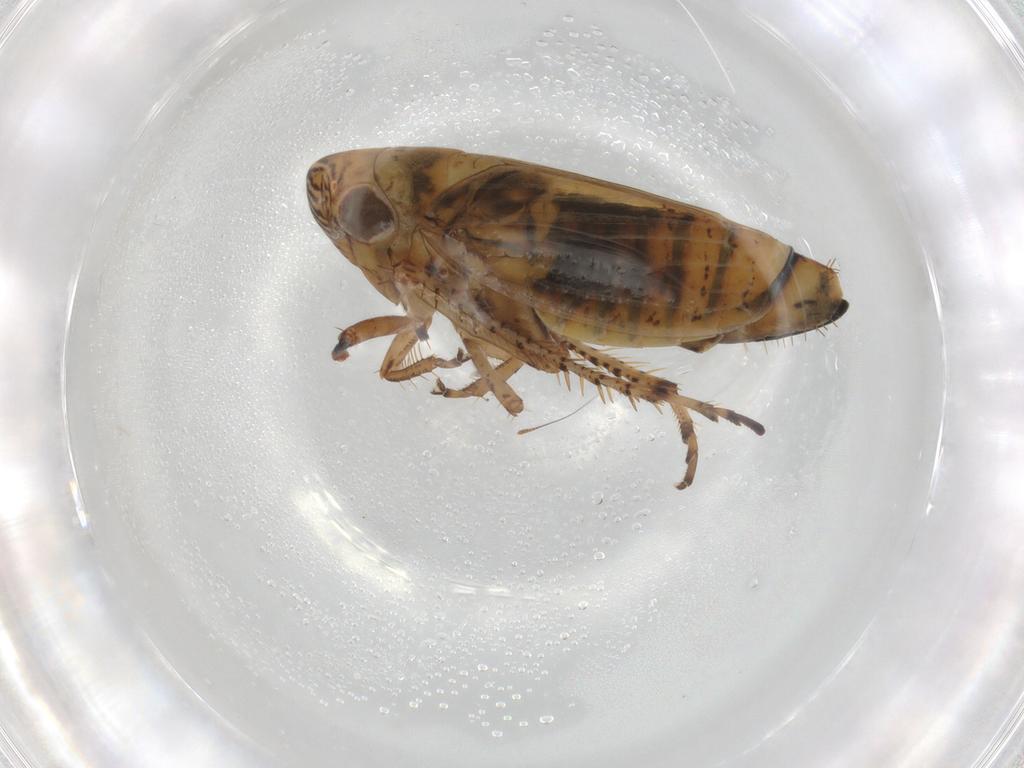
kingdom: Animalia
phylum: Arthropoda
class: Insecta
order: Hemiptera
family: Cicadellidae
